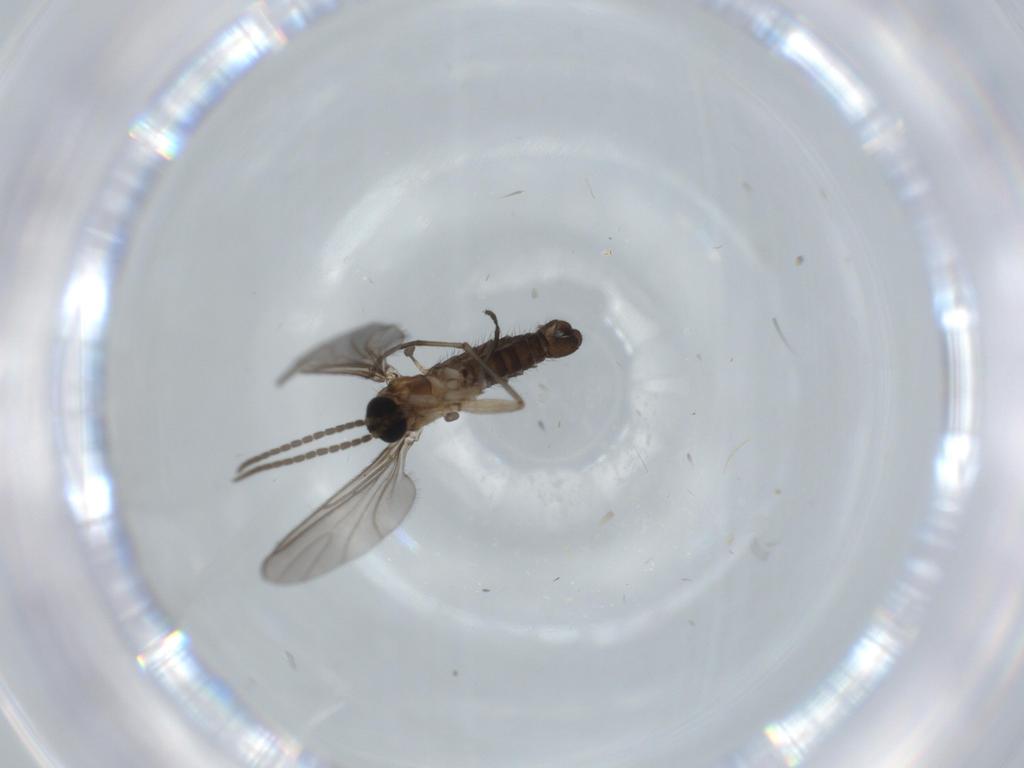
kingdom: Animalia
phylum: Arthropoda
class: Insecta
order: Diptera
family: Sciaridae
